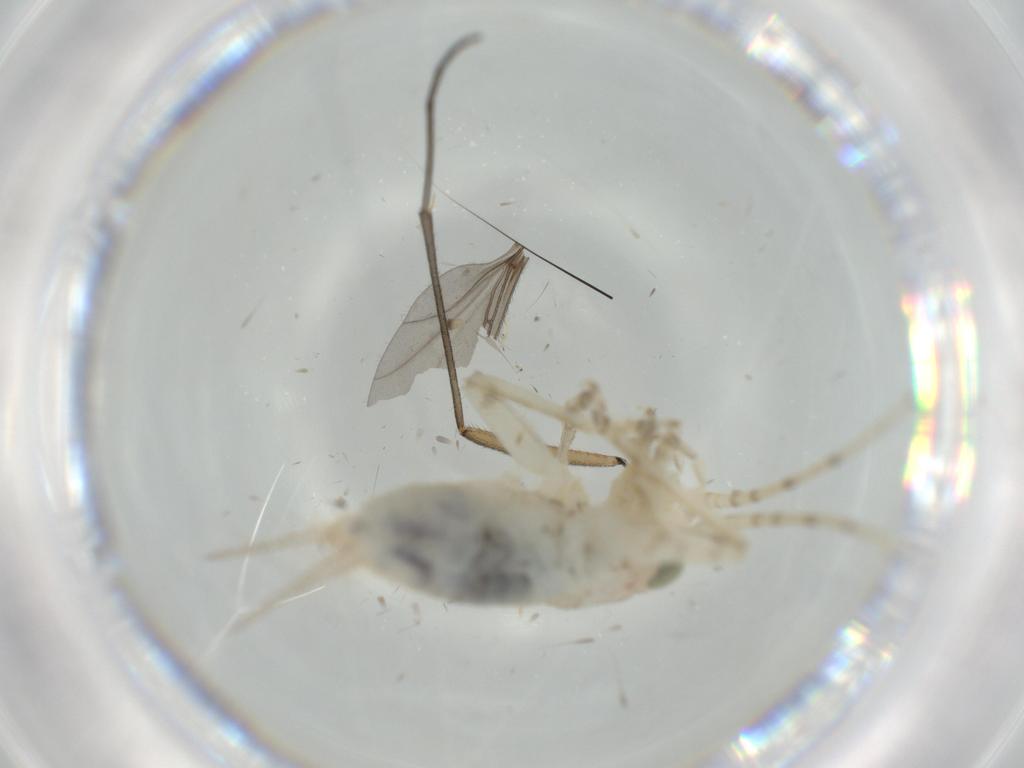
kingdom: Animalia
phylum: Arthropoda
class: Insecta
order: Orthoptera
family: Trigonidiidae
